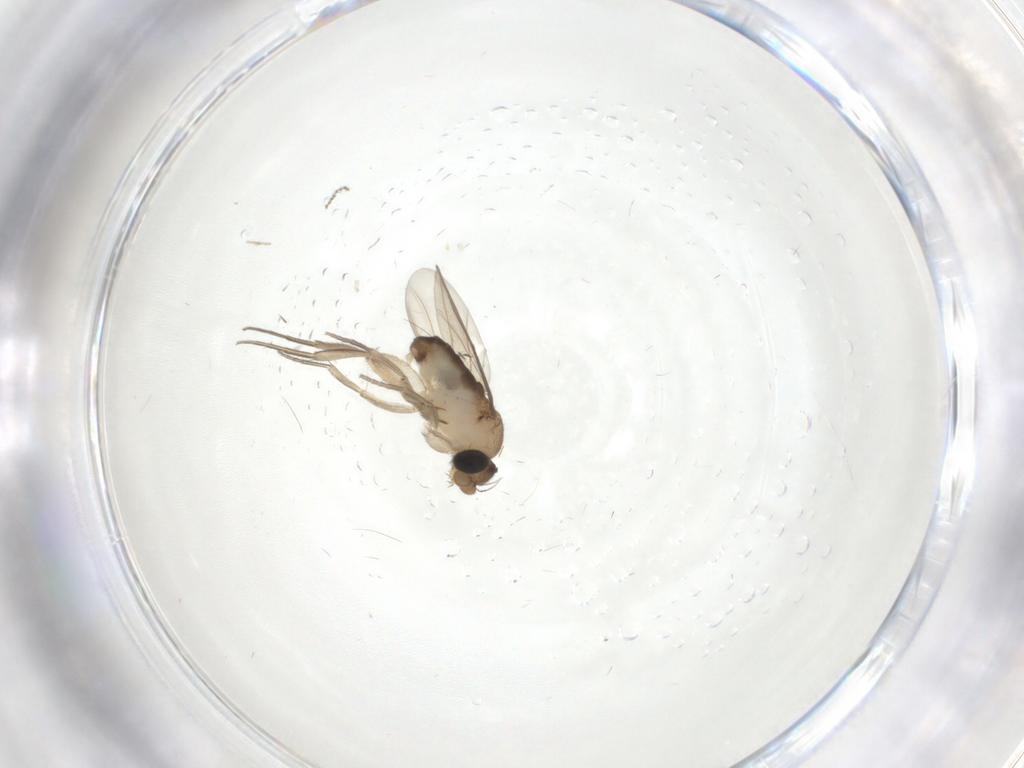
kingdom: Animalia
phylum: Arthropoda
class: Insecta
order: Diptera
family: Phoridae
